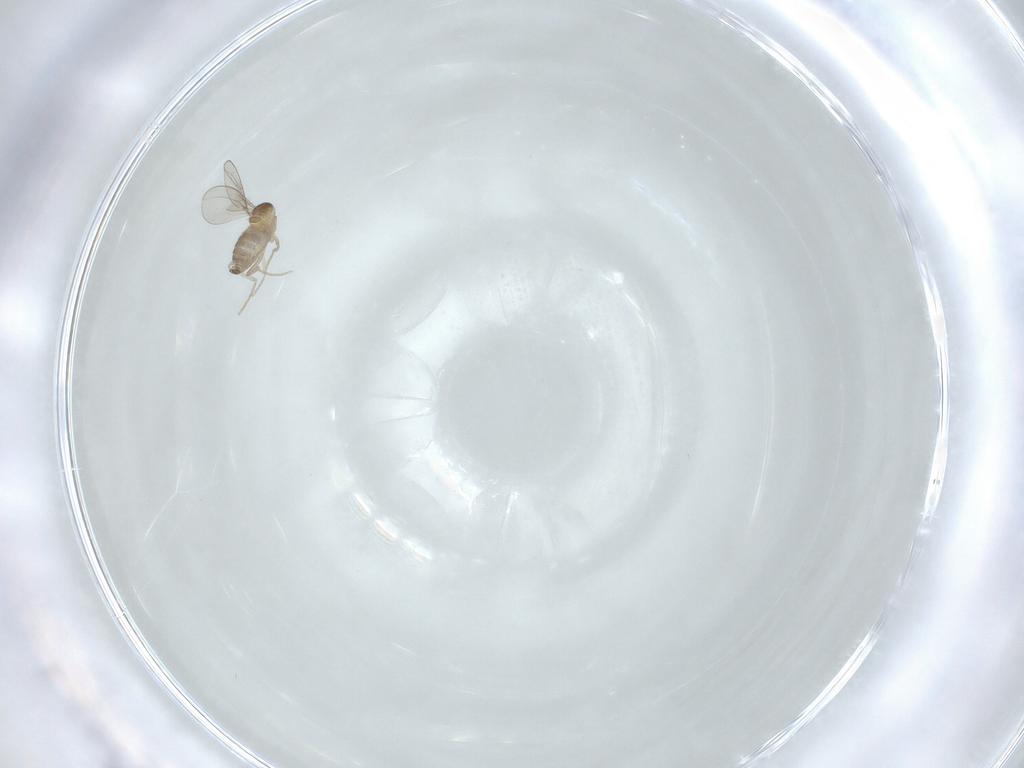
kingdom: Animalia
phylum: Arthropoda
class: Insecta
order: Diptera
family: Cecidomyiidae
